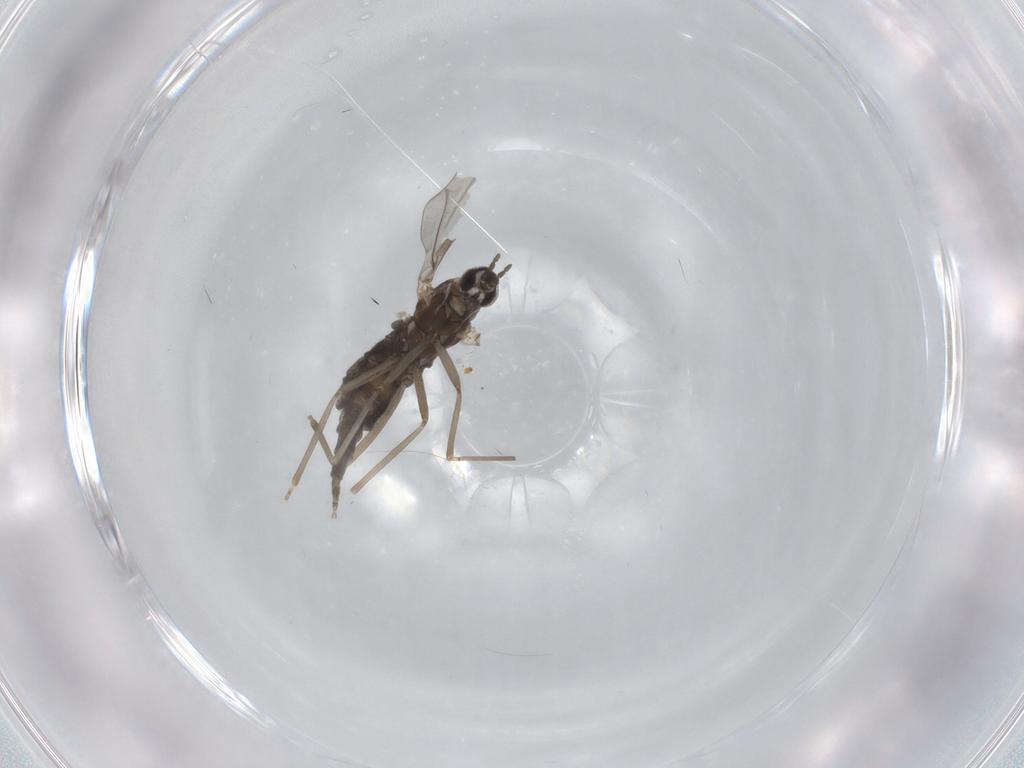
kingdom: Animalia
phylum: Arthropoda
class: Insecta
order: Diptera
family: Cecidomyiidae
